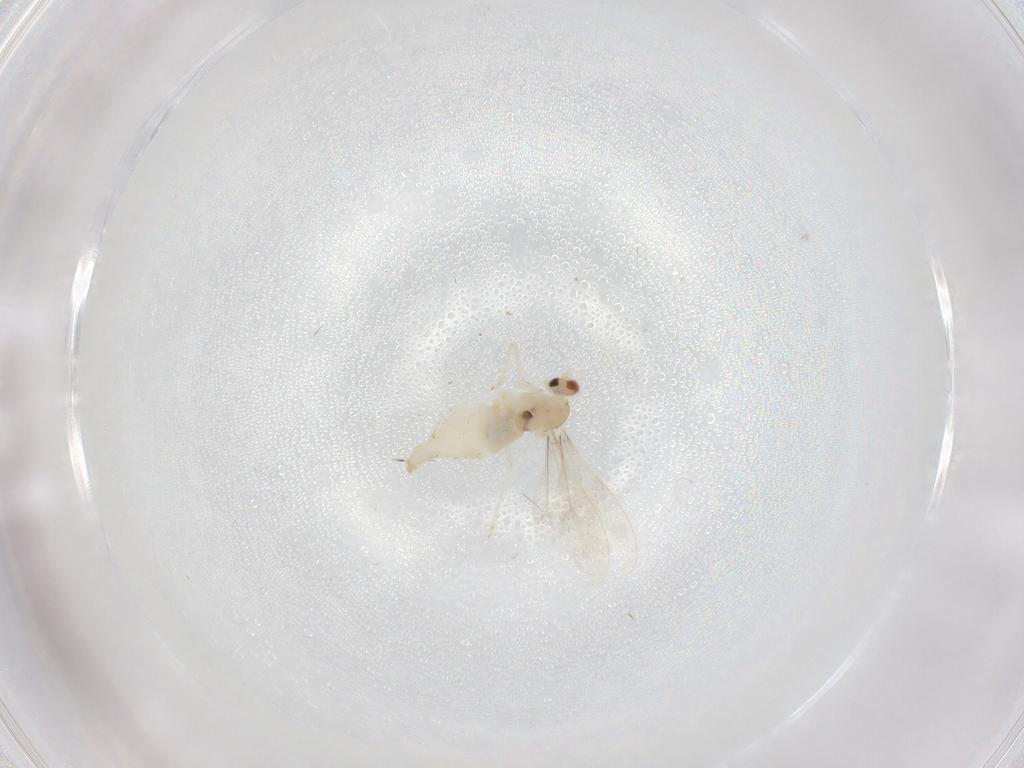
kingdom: Animalia
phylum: Arthropoda
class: Insecta
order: Diptera
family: Cecidomyiidae
